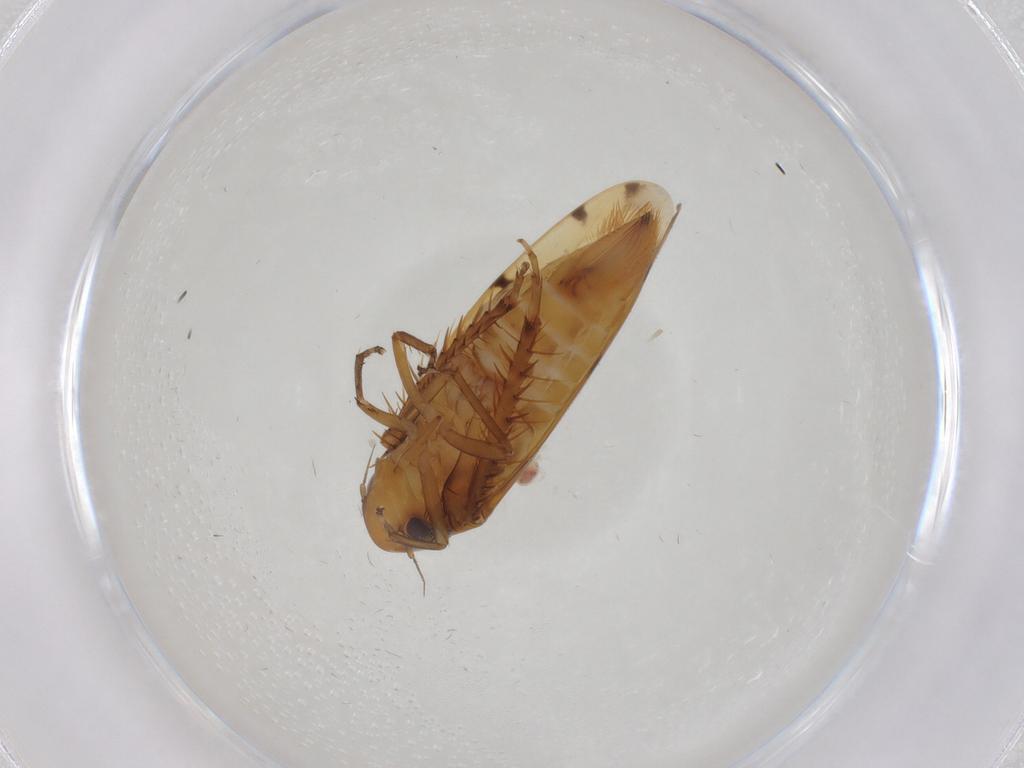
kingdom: Animalia
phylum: Arthropoda
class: Insecta
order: Hemiptera
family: Cicadellidae
